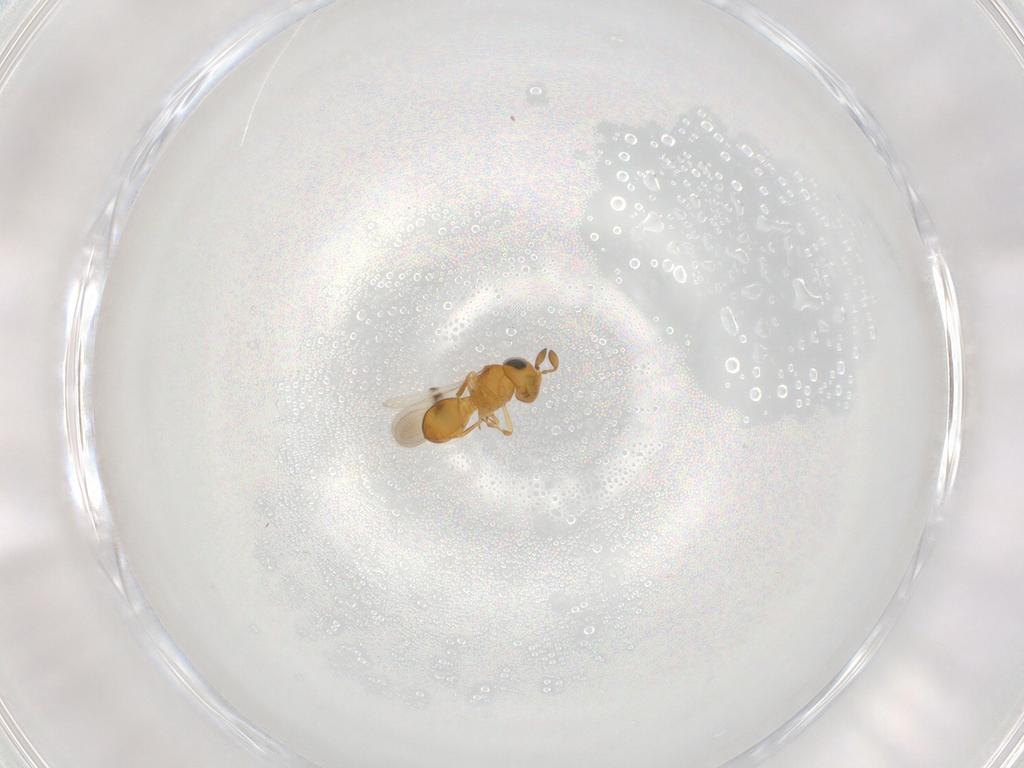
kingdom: Animalia
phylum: Arthropoda
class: Insecta
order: Hymenoptera
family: Scelionidae
